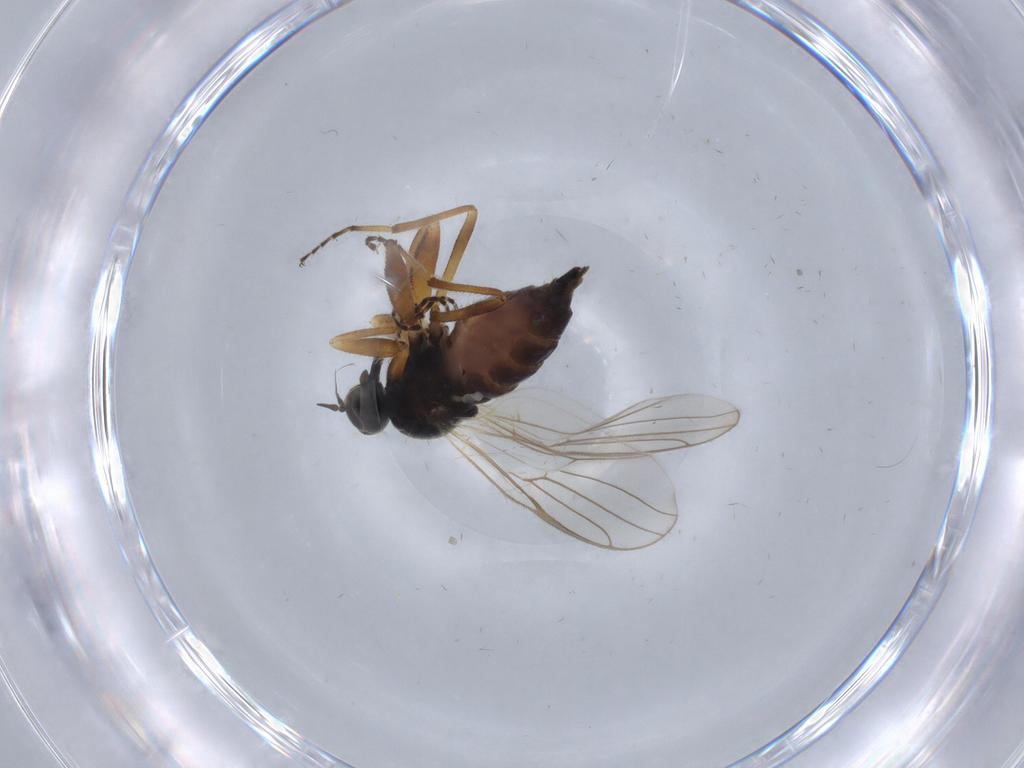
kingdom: Animalia
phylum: Arthropoda
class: Insecta
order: Diptera
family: Hybotidae
